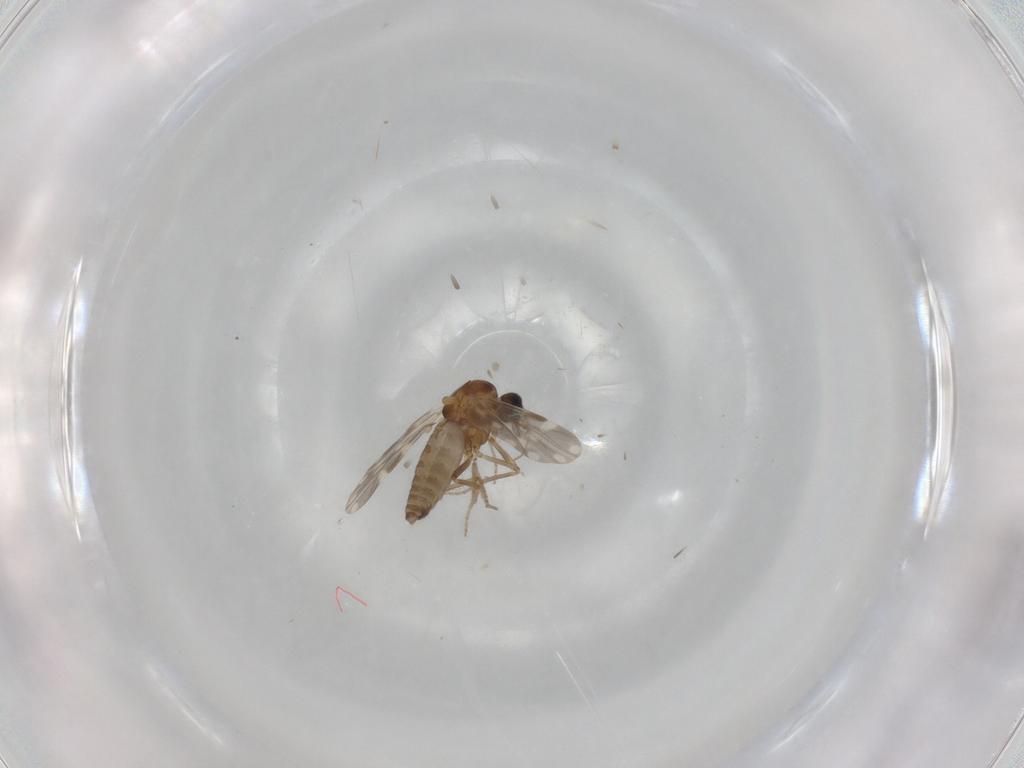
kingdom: Animalia
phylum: Arthropoda
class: Insecta
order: Diptera
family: Ceratopogonidae
